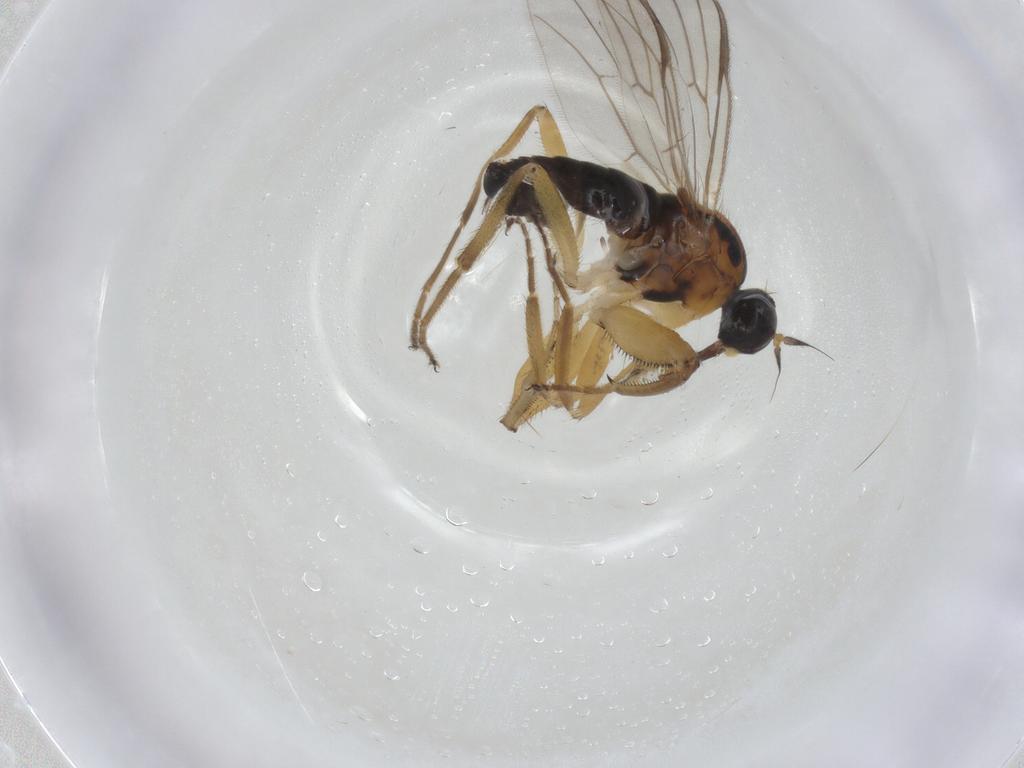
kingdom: Animalia
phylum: Arthropoda
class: Insecta
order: Diptera
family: Hybotidae
